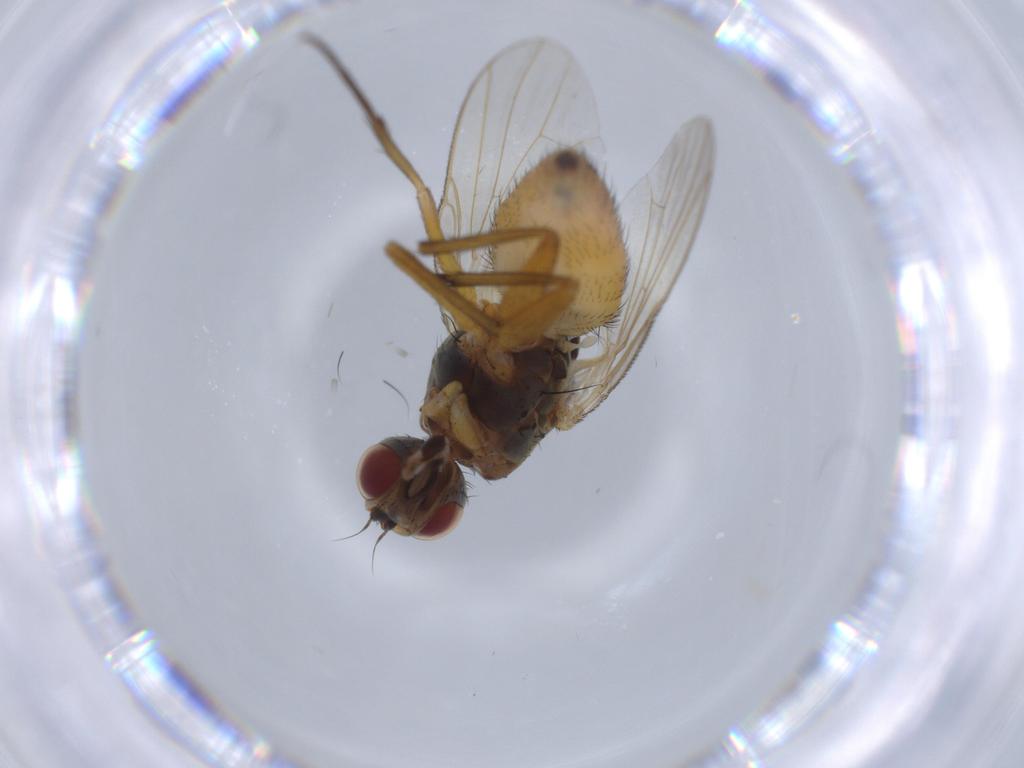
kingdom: Animalia
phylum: Arthropoda
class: Insecta
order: Diptera
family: Muscidae
